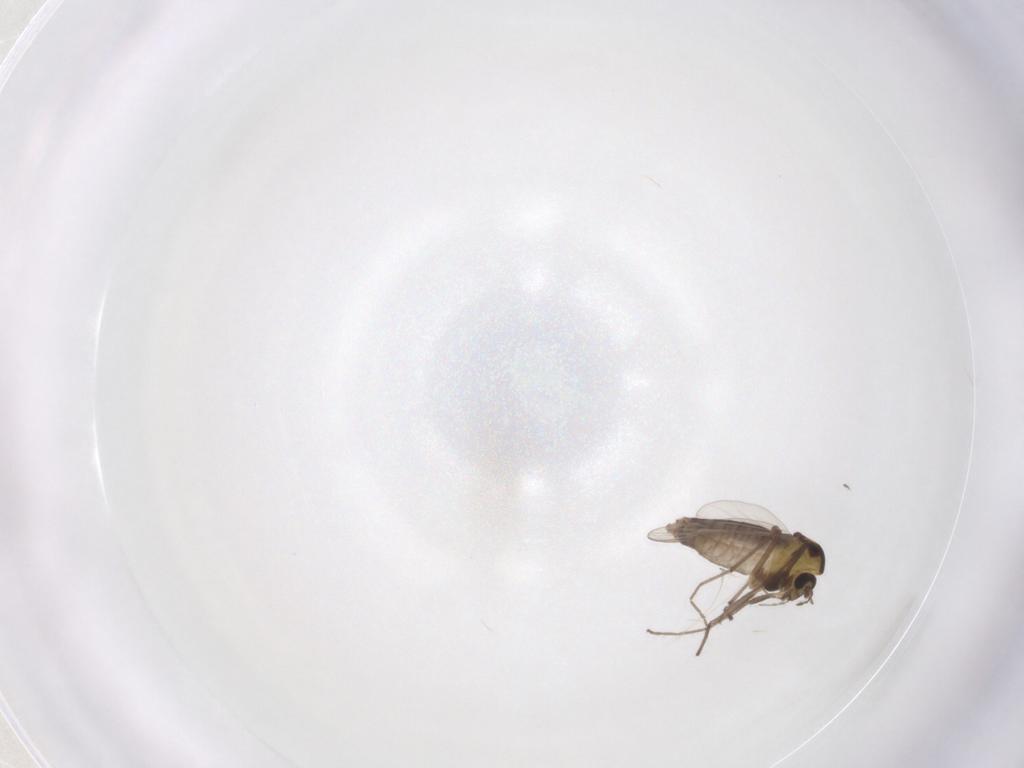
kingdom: Animalia
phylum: Arthropoda
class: Insecta
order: Diptera
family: Chironomidae
